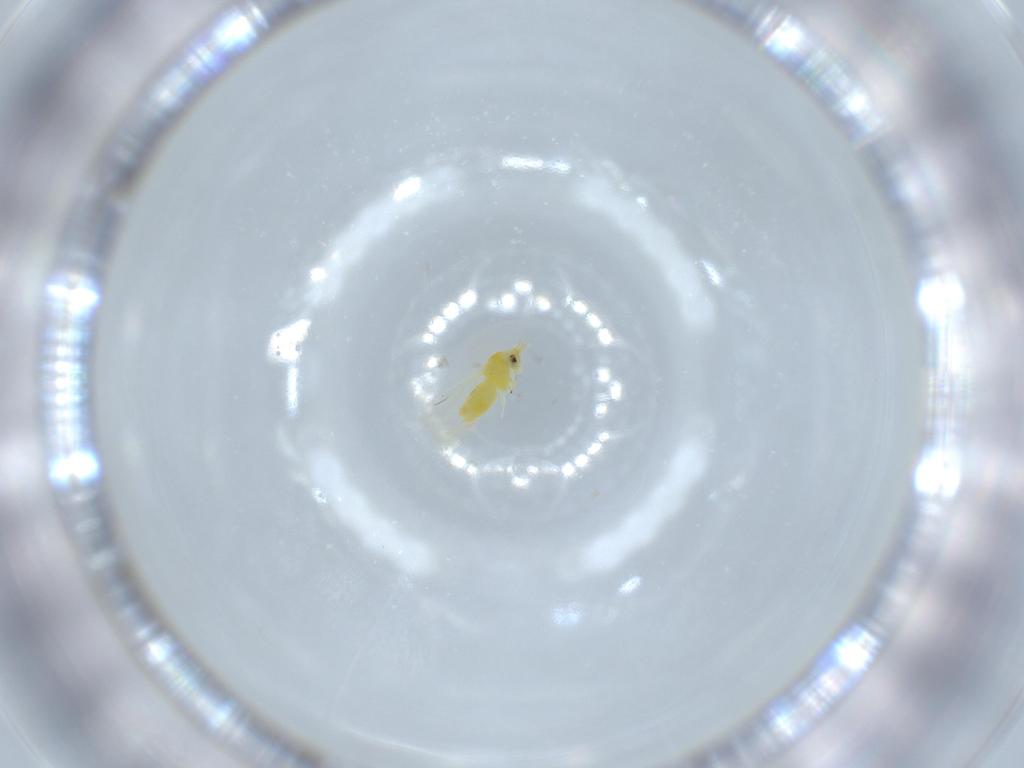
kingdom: Animalia
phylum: Arthropoda
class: Insecta
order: Hemiptera
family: Aleyrodidae
